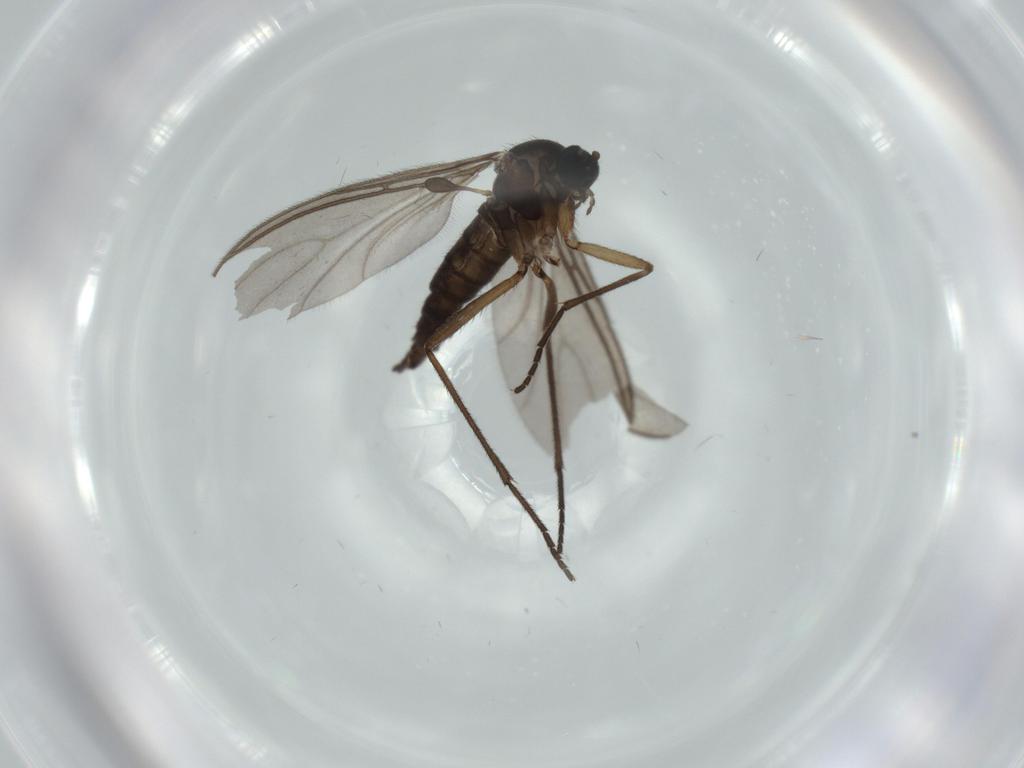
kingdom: Animalia
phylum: Arthropoda
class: Insecta
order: Diptera
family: Sciaridae
